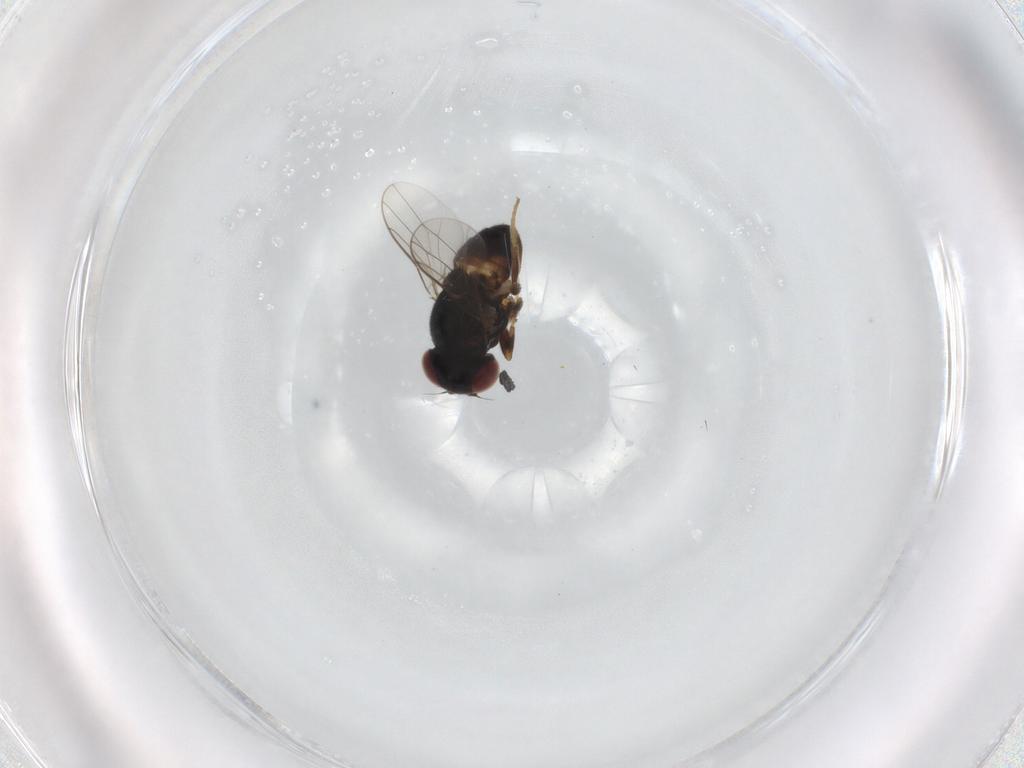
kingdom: Animalia
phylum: Arthropoda
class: Insecta
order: Diptera
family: Chloropidae
